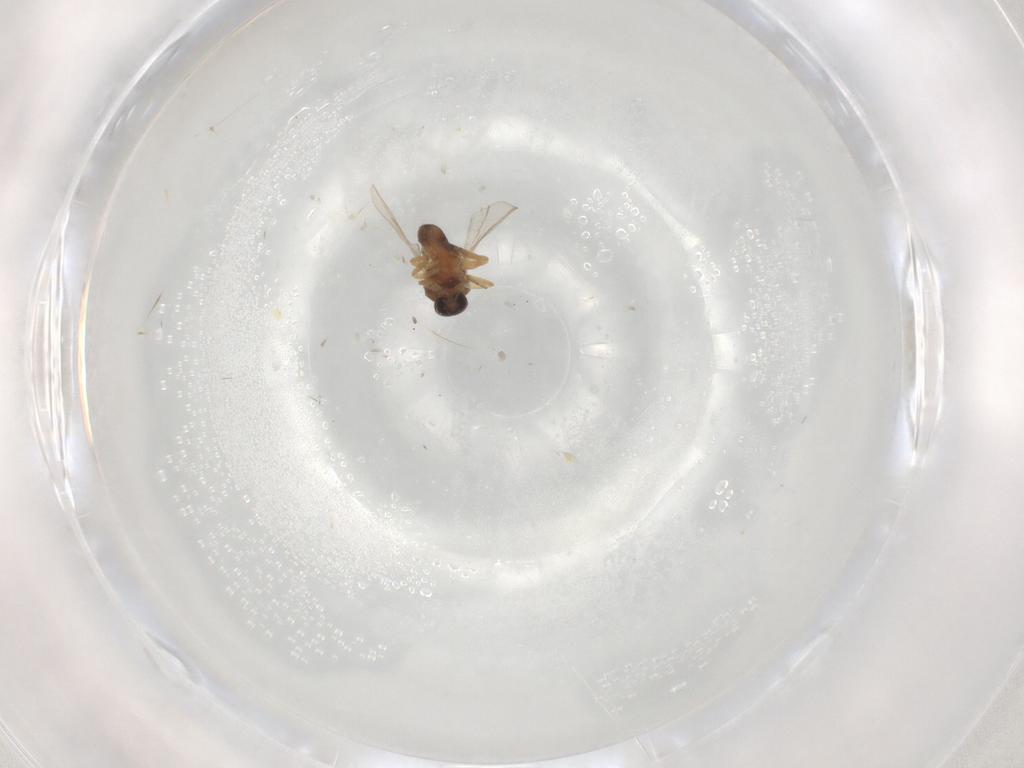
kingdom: Animalia
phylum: Arthropoda
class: Insecta
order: Diptera
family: Ceratopogonidae
